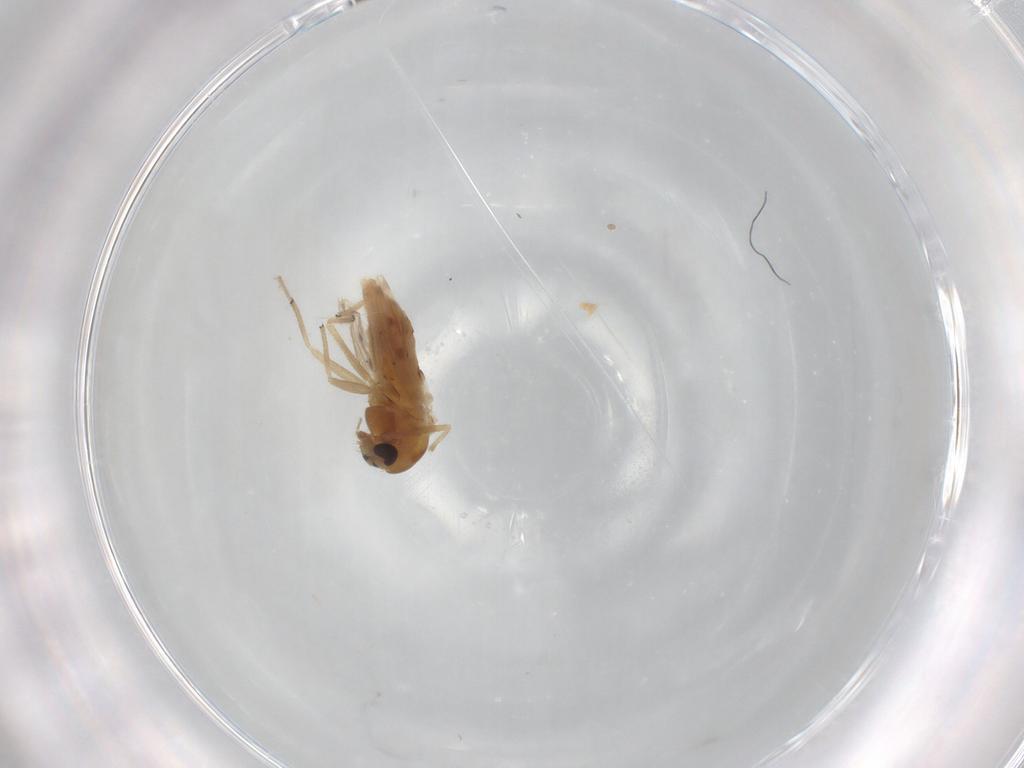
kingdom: Animalia
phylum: Arthropoda
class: Insecta
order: Diptera
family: Chironomidae
